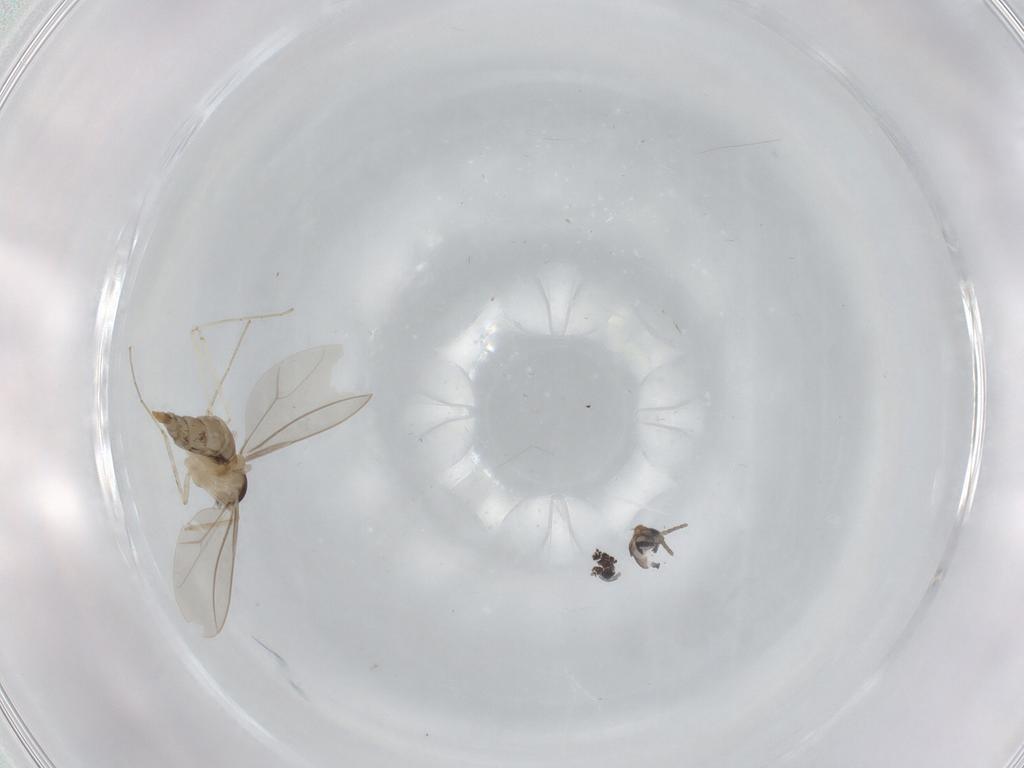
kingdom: Animalia
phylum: Arthropoda
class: Insecta
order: Diptera
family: Cecidomyiidae
